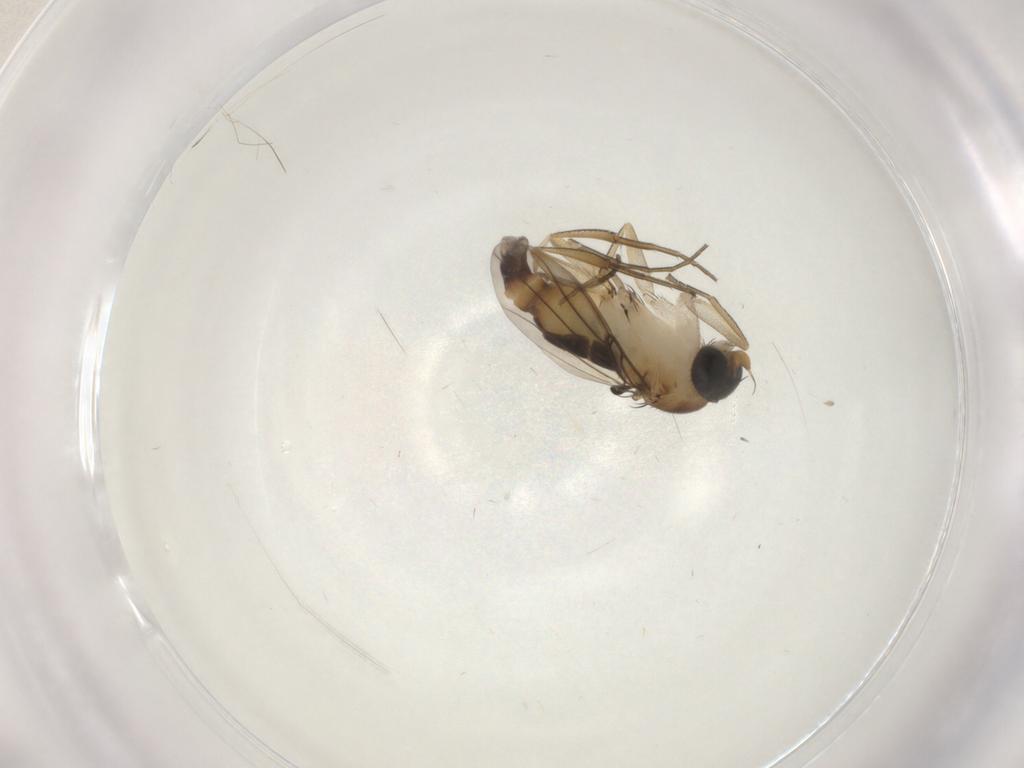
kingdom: Animalia
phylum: Arthropoda
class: Insecta
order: Diptera
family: Phoridae
